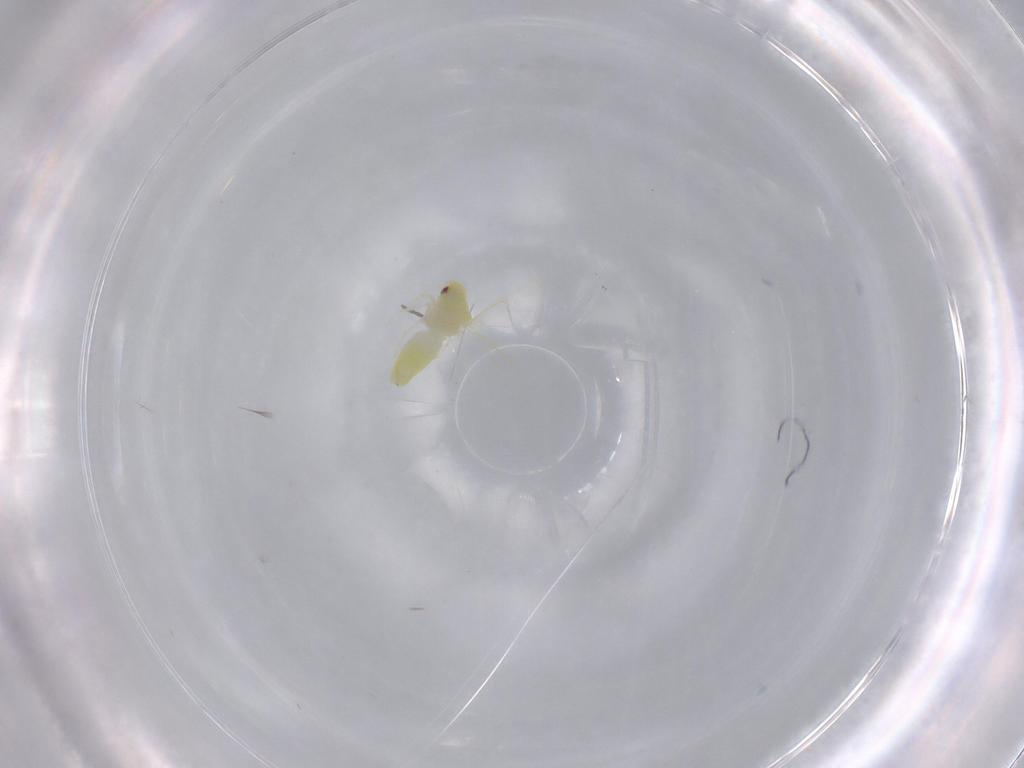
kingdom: Animalia
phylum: Arthropoda
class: Insecta
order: Hemiptera
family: Aleyrodidae
